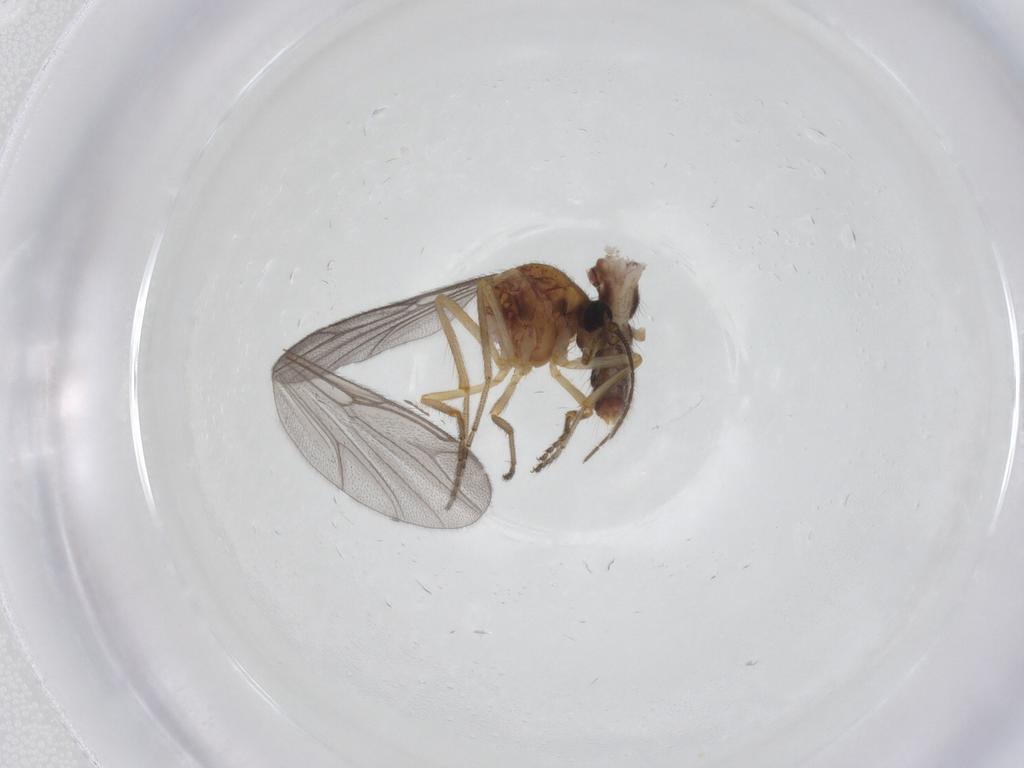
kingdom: Animalia
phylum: Arthropoda
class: Insecta
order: Diptera
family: Ceratopogonidae
